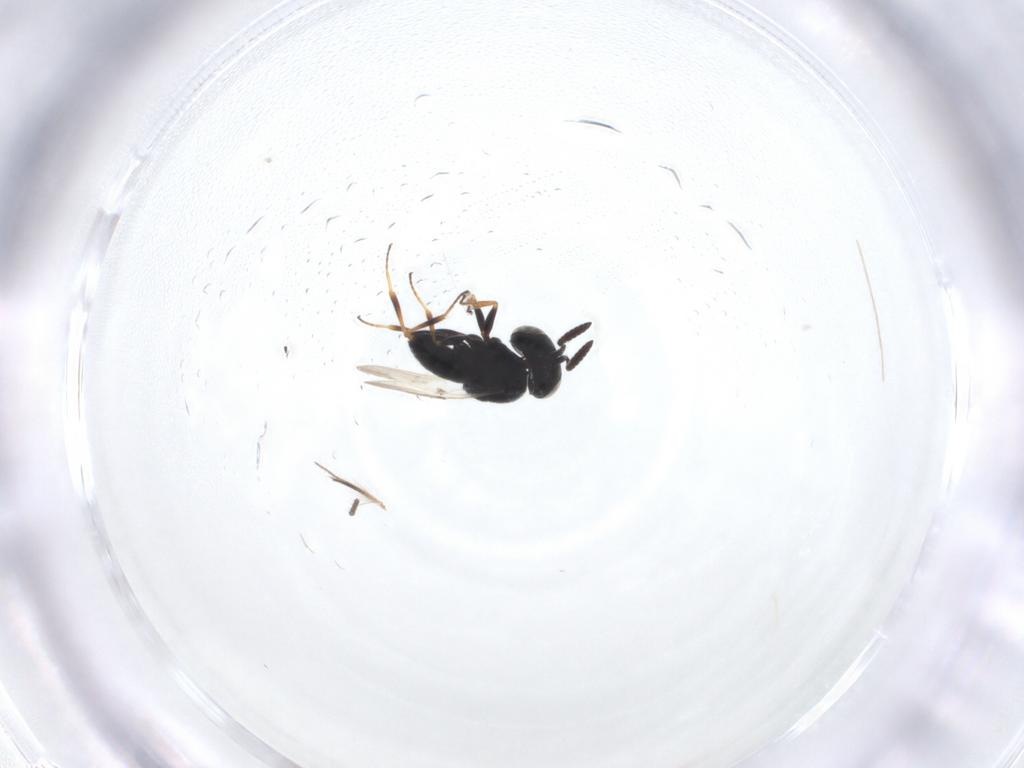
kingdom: Animalia
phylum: Arthropoda
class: Insecta
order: Hymenoptera
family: Scelionidae
